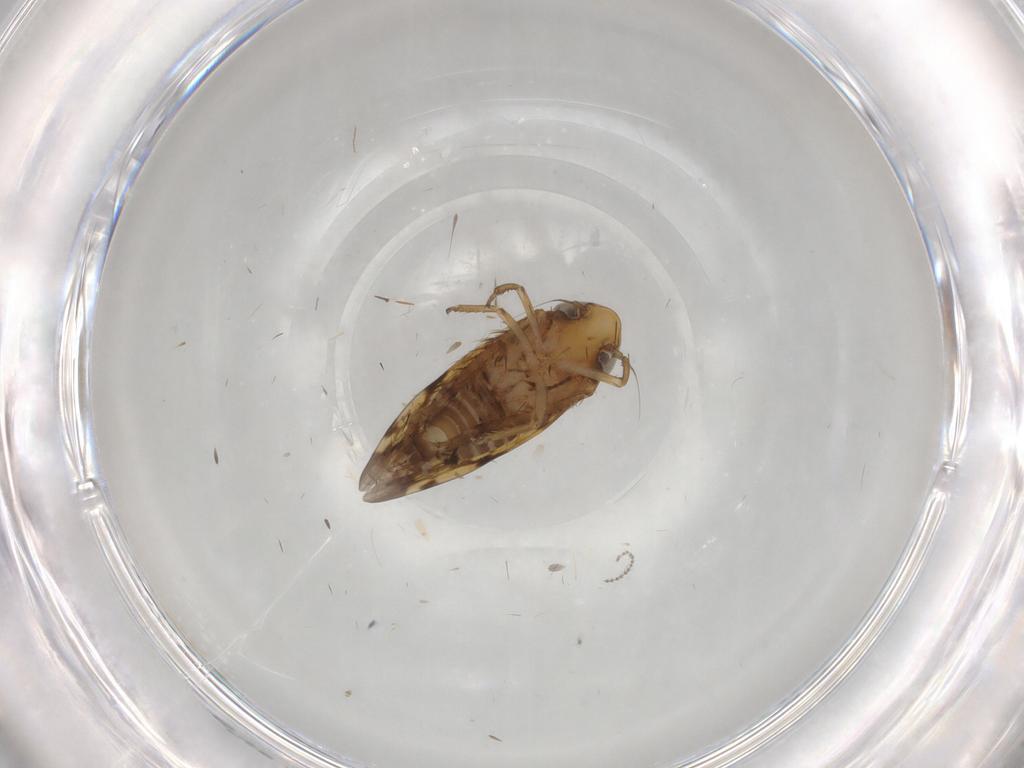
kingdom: Animalia
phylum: Arthropoda
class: Insecta
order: Hemiptera
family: Cicadellidae
